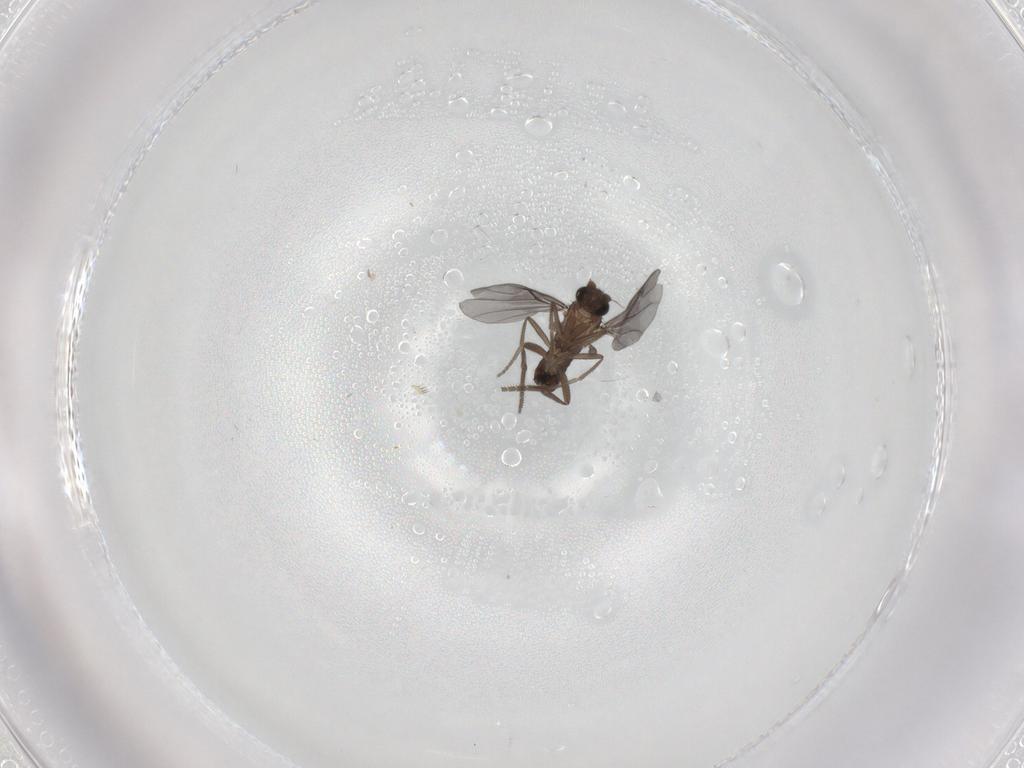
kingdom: Animalia
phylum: Arthropoda
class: Insecta
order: Diptera
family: Phoridae
